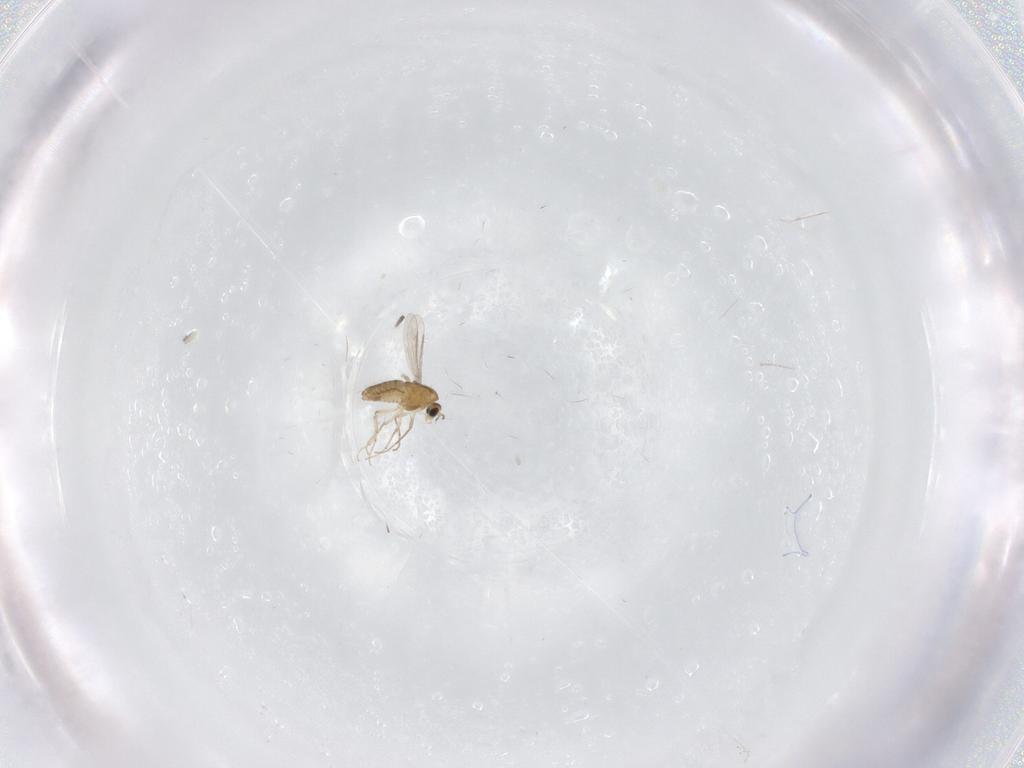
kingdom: Animalia
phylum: Arthropoda
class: Insecta
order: Diptera
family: Chironomidae
